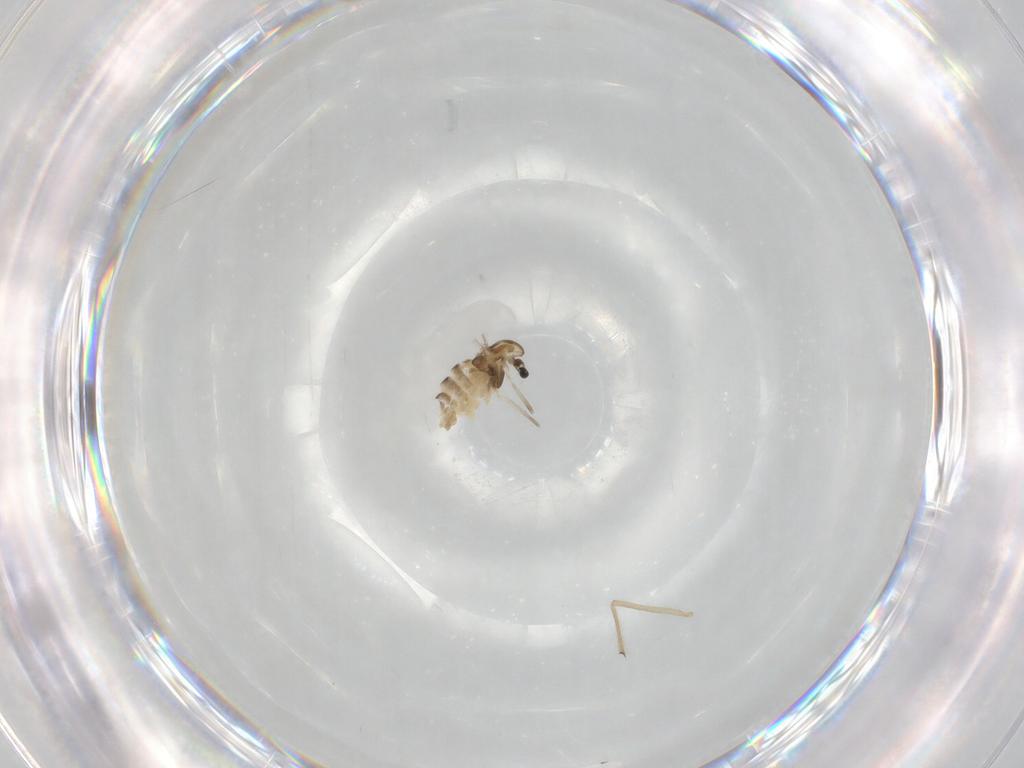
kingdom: Animalia
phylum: Arthropoda
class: Insecta
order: Diptera
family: Chironomidae
